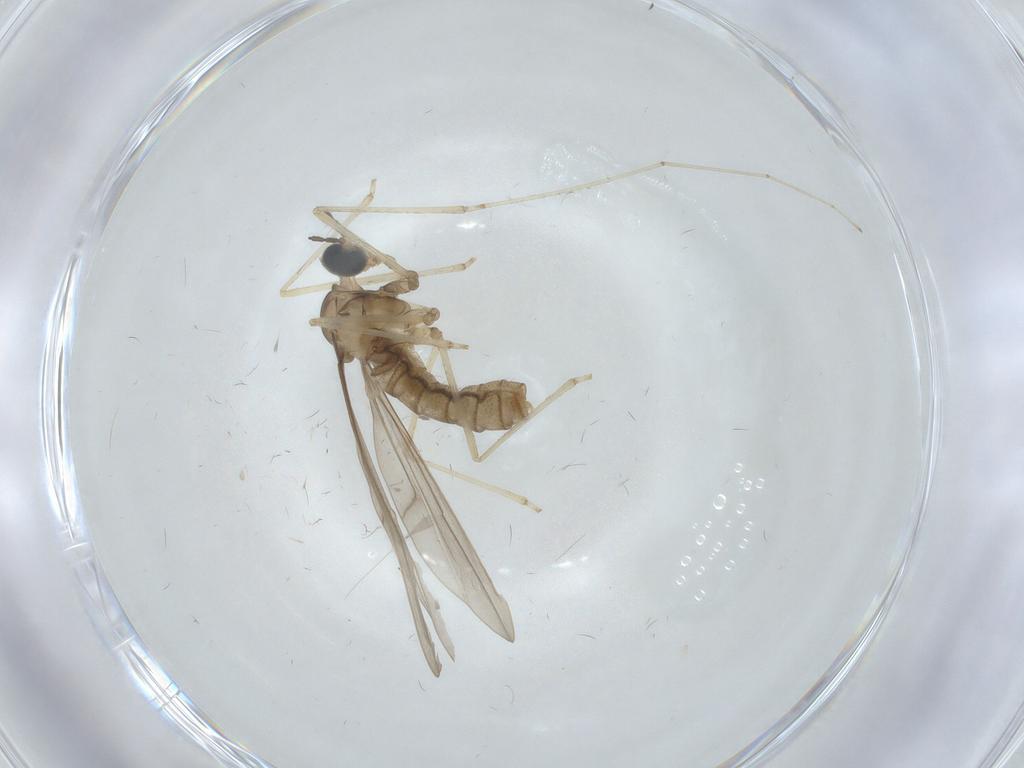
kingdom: Animalia
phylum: Arthropoda
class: Insecta
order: Diptera
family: Cecidomyiidae
